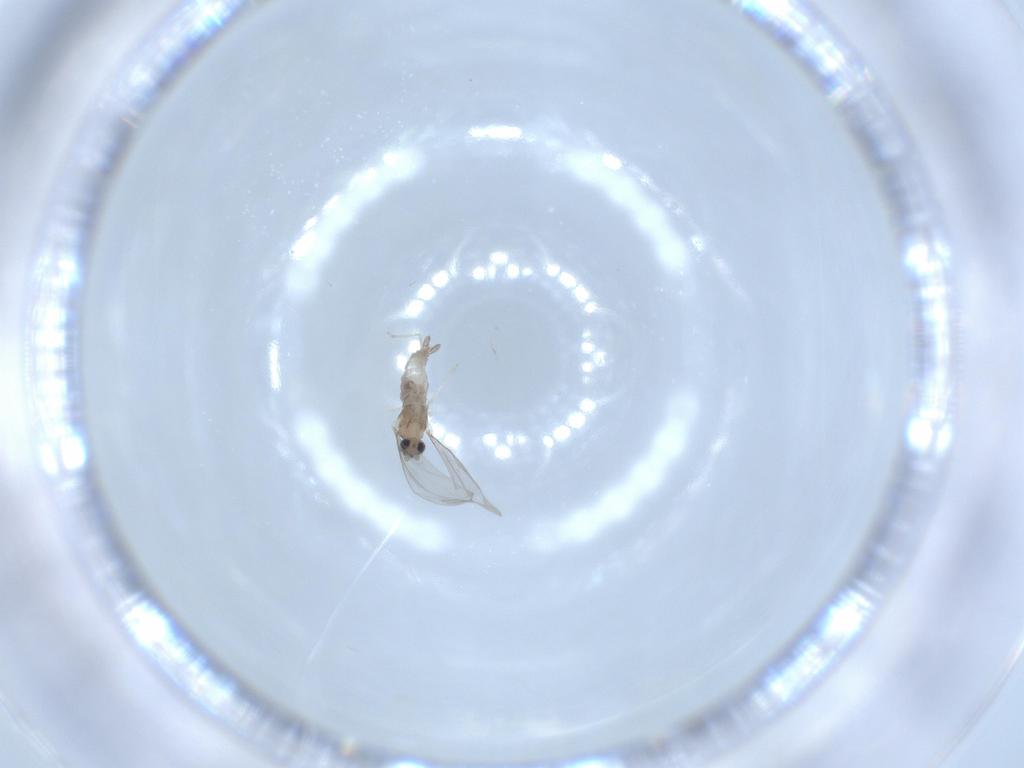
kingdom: Animalia
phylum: Arthropoda
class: Insecta
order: Diptera
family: Cecidomyiidae
